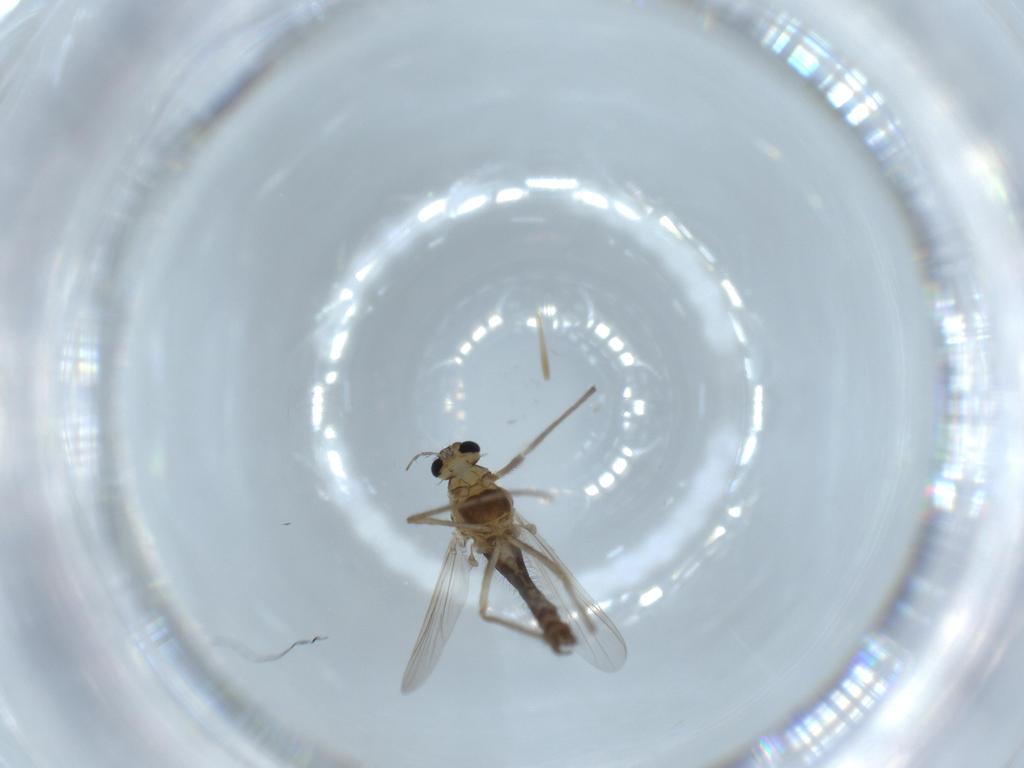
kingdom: Animalia
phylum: Arthropoda
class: Insecta
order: Diptera
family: Chironomidae
